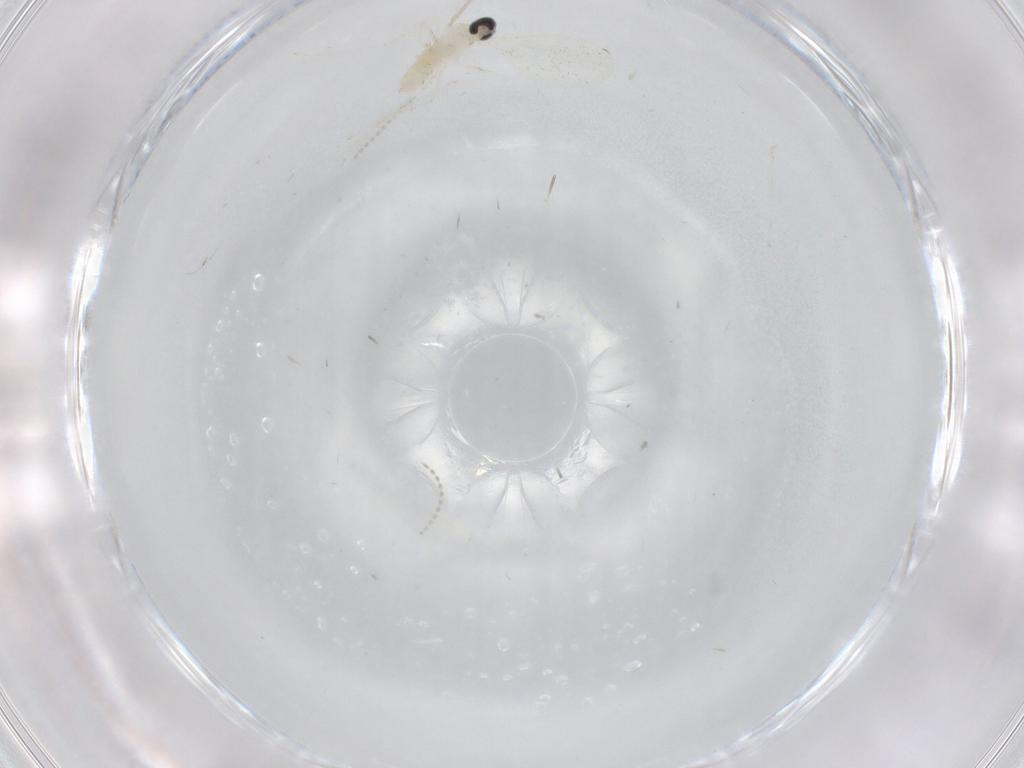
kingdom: Animalia
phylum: Arthropoda
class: Insecta
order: Diptera
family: Cecidomyiidae
